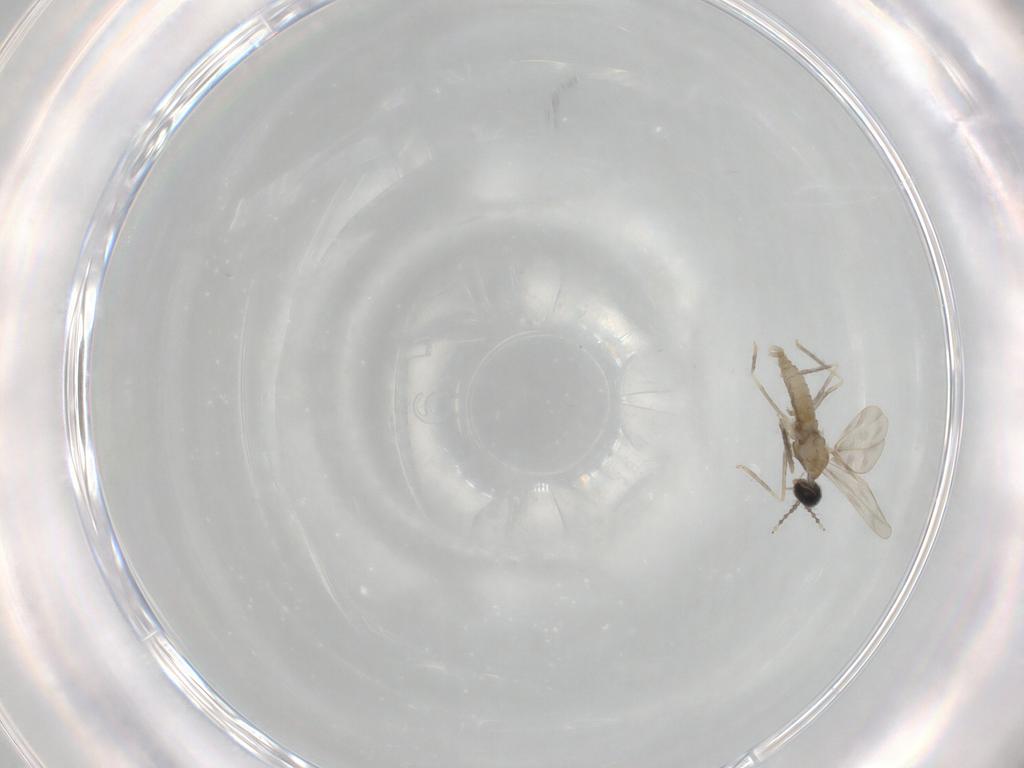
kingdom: Animalia
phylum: Arthropoda
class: Insecta
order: Diptera
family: Cecidomyiidae
